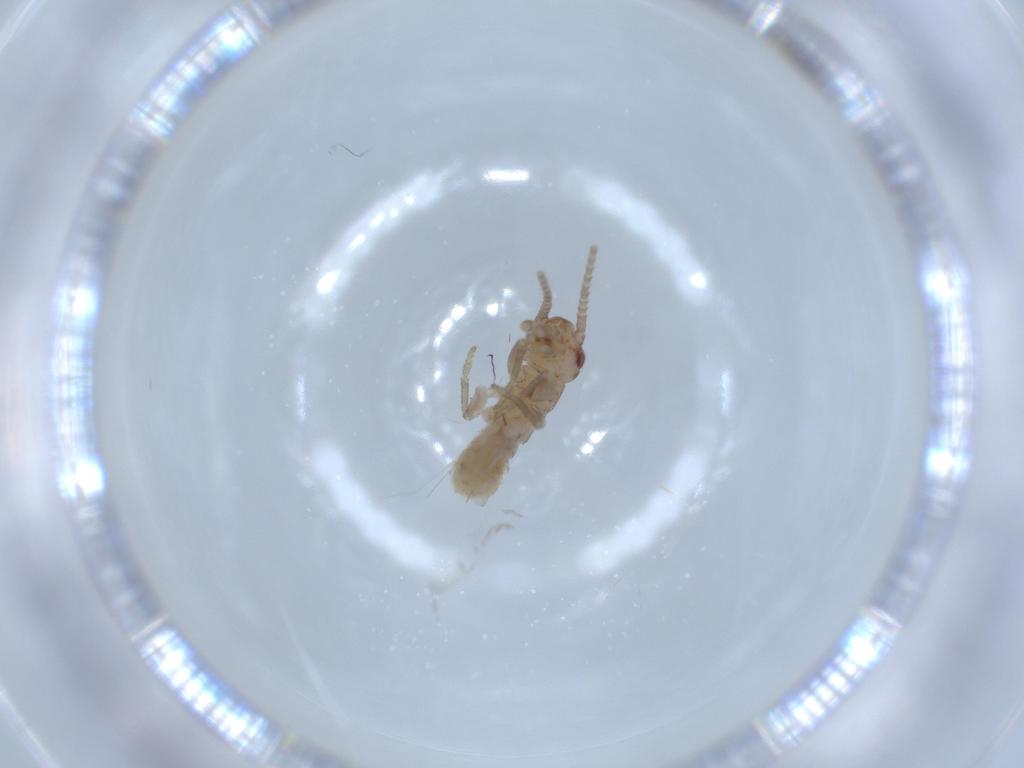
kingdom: Animalia
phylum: Arthropoda
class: Insecta
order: Orthoptera
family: Mogoplistidae
